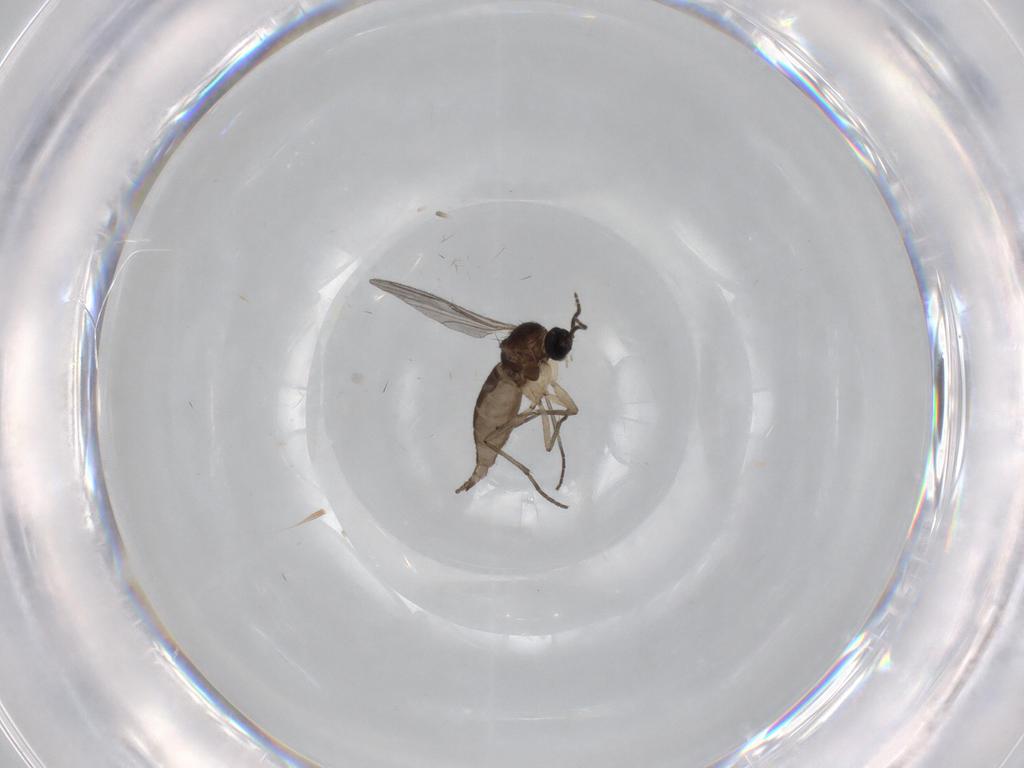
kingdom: Animalia
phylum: Arthropoda
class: Insecta
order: Diptera
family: Sciaridae
